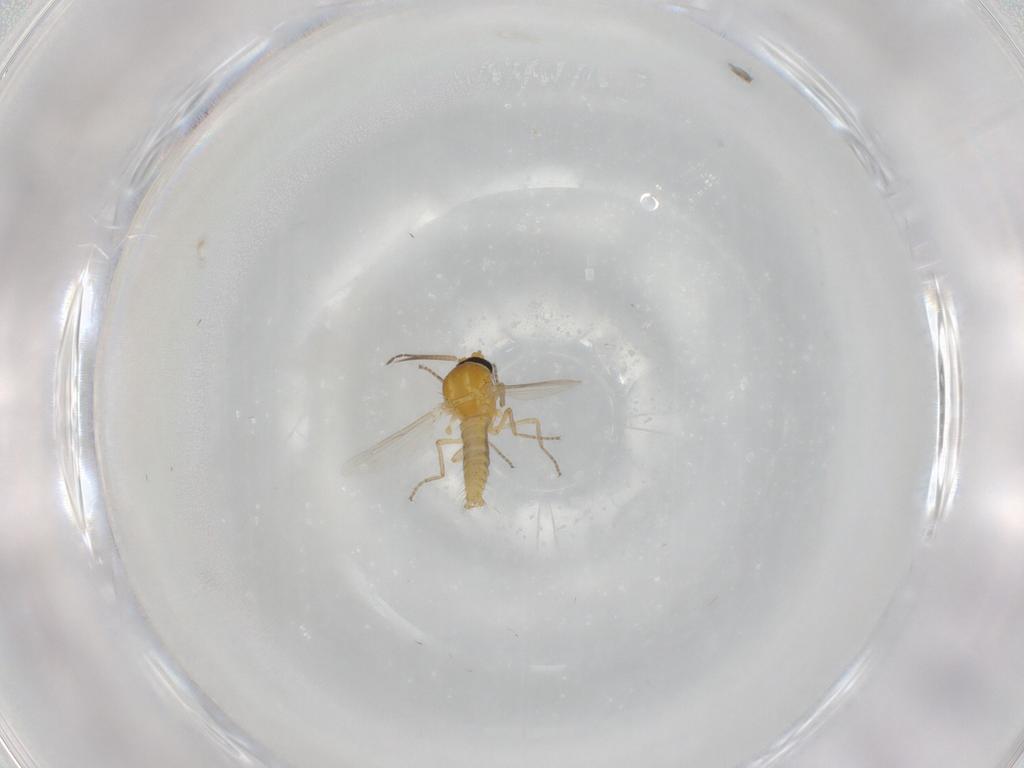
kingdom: Animalia
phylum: Arthropoda
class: Insecta
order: Diptera
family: Ceratopogonidae
